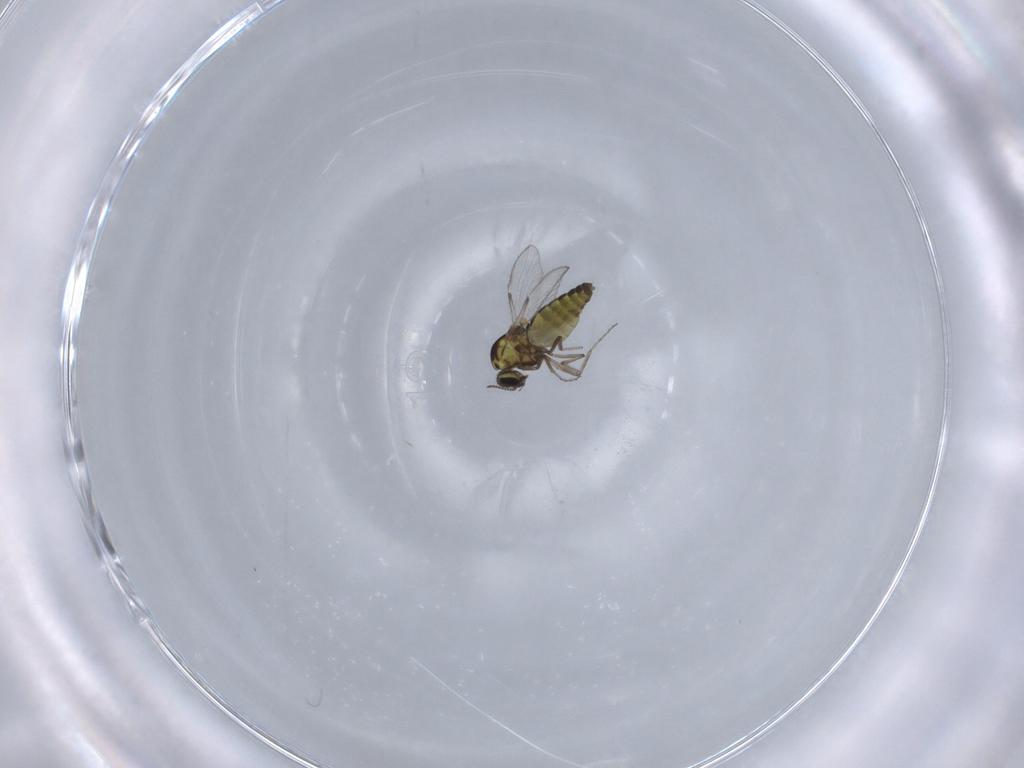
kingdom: Animalia
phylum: Arthropoda
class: Insecta
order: Diptera
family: Ceratopogonidae
